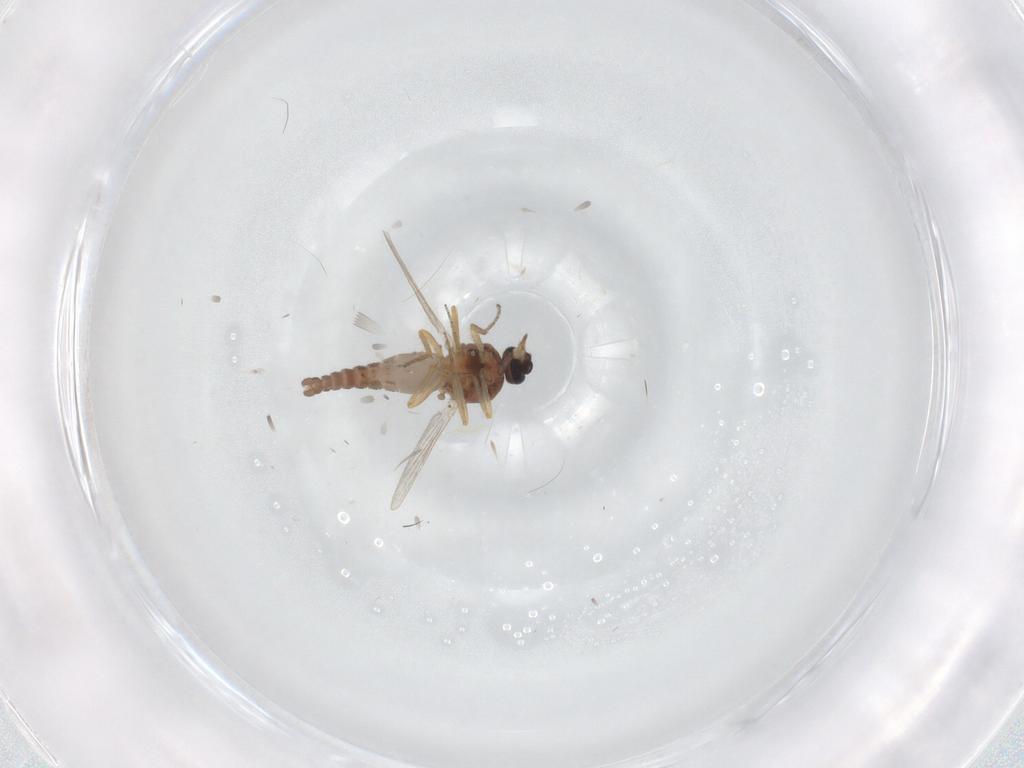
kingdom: Animalia
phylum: Arthropoda
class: Insecta
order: Diptera
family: Ceratopogonidae
